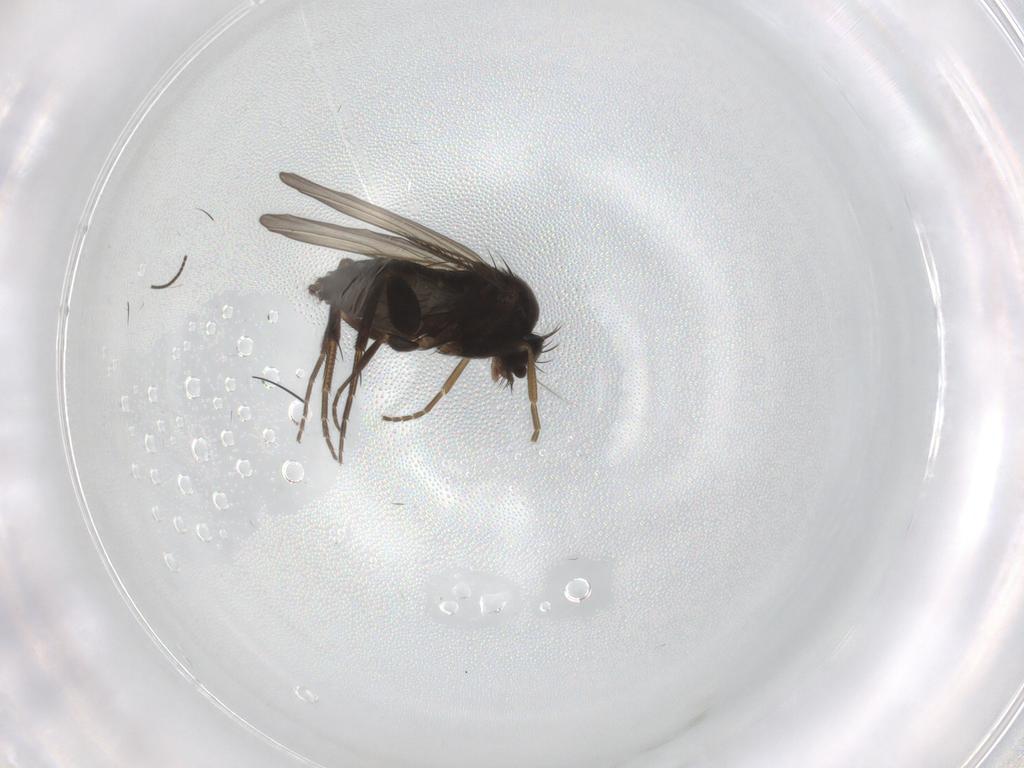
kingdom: Animalia
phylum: Arthropoda
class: Insecta
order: Diptera
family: Phoridae
